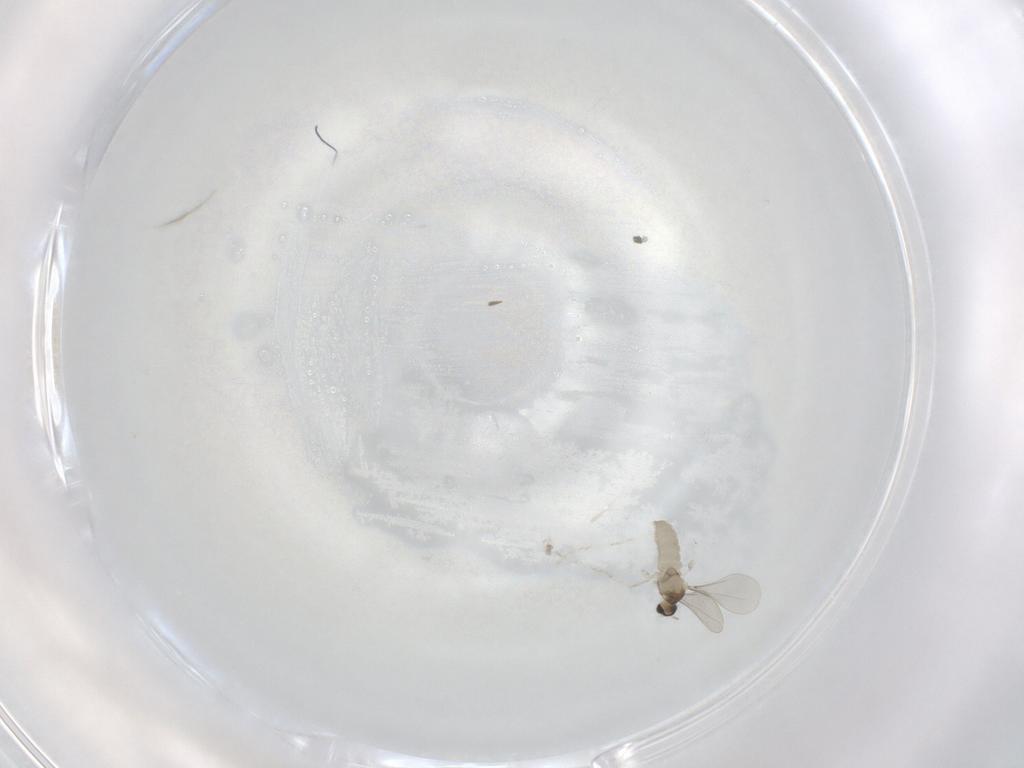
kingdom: Animalia
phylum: Arthropoda
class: Insecta
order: Diptera
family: Cecidomyiidae
